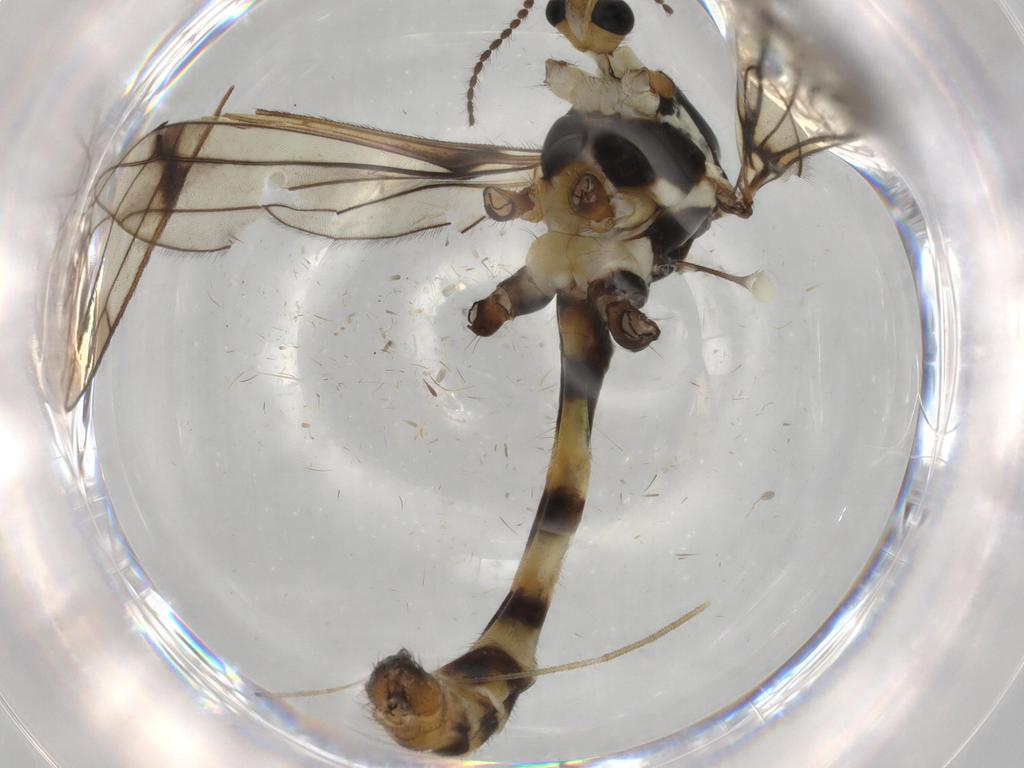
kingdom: Animalia
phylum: Arthropoda
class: Insecta
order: Diptera
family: Limoniidae
